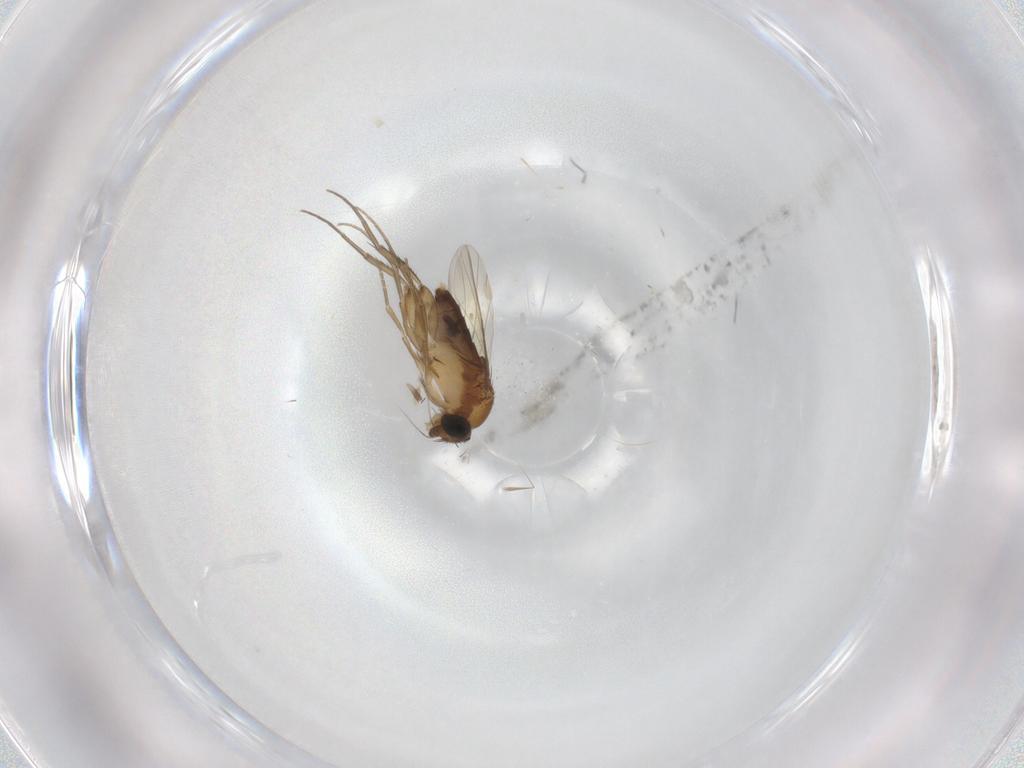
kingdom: Animalia
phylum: Arthropoda
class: Insecta
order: Diptera
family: Phoridae
